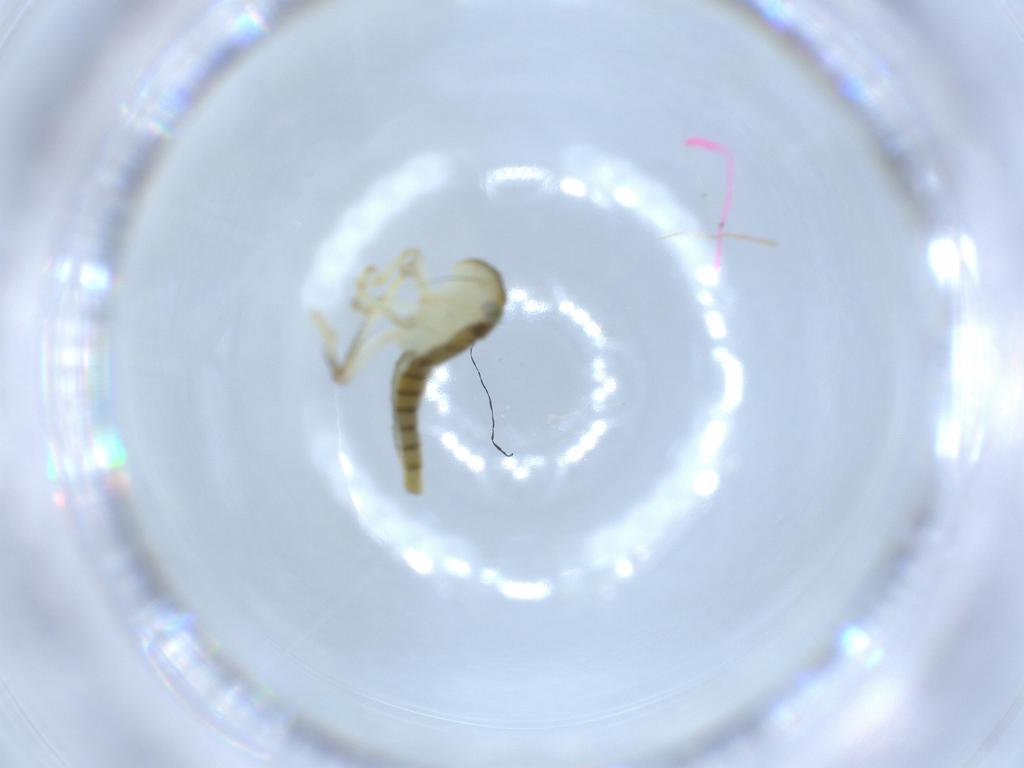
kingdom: Animalia
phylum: Arthropoda
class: Insecta
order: Hemiptera
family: Cicadellidae
